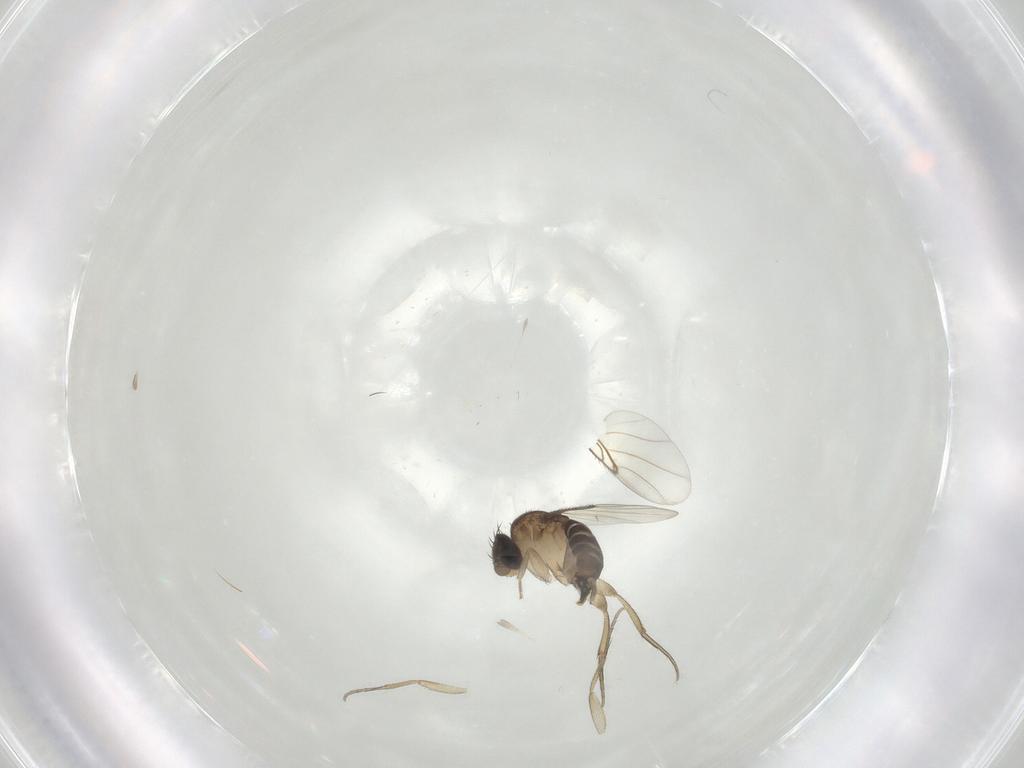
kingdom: Animalia
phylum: Arthropoda
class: Insecta
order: Diptera
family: Phoridae
